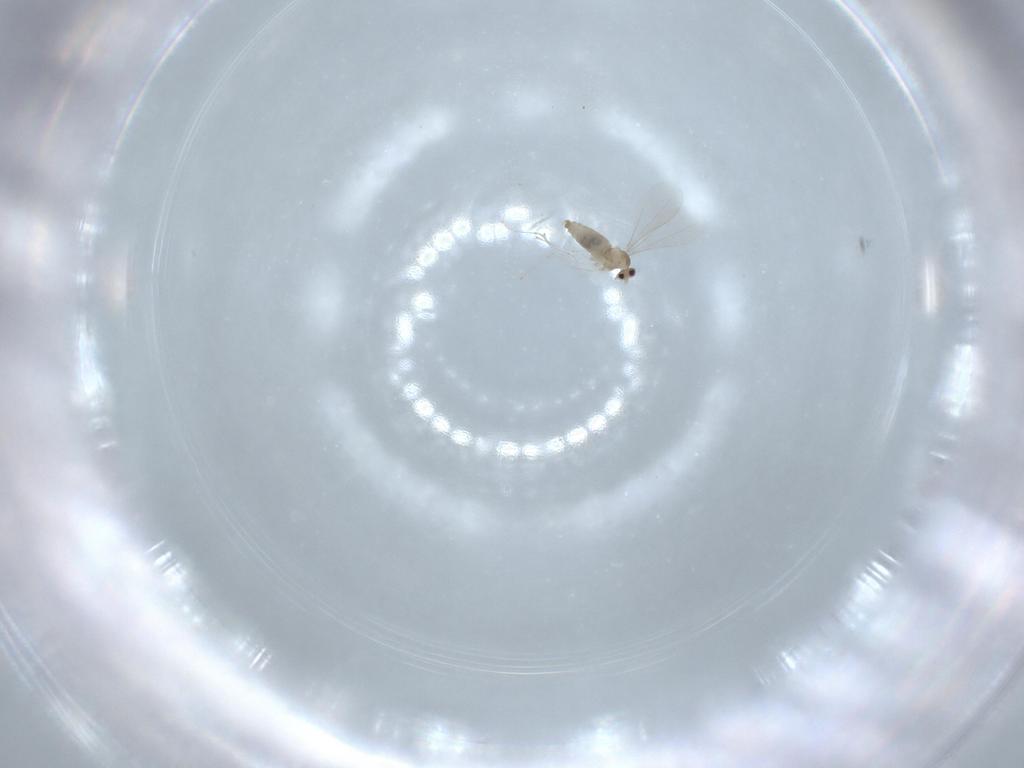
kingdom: Animalia
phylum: Arthropoda
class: Insecta
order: Diptera
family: Cecidomyiidae
